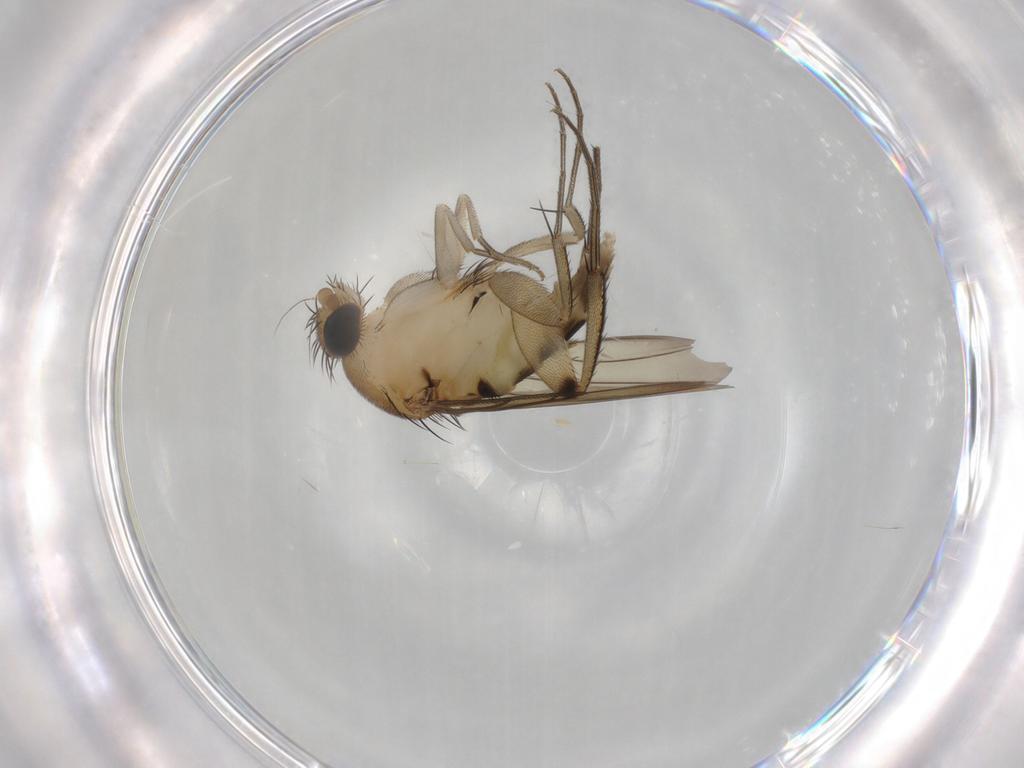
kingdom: Animalia
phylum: Arthropoda
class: Insecta
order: Diptera
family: Phoridae
